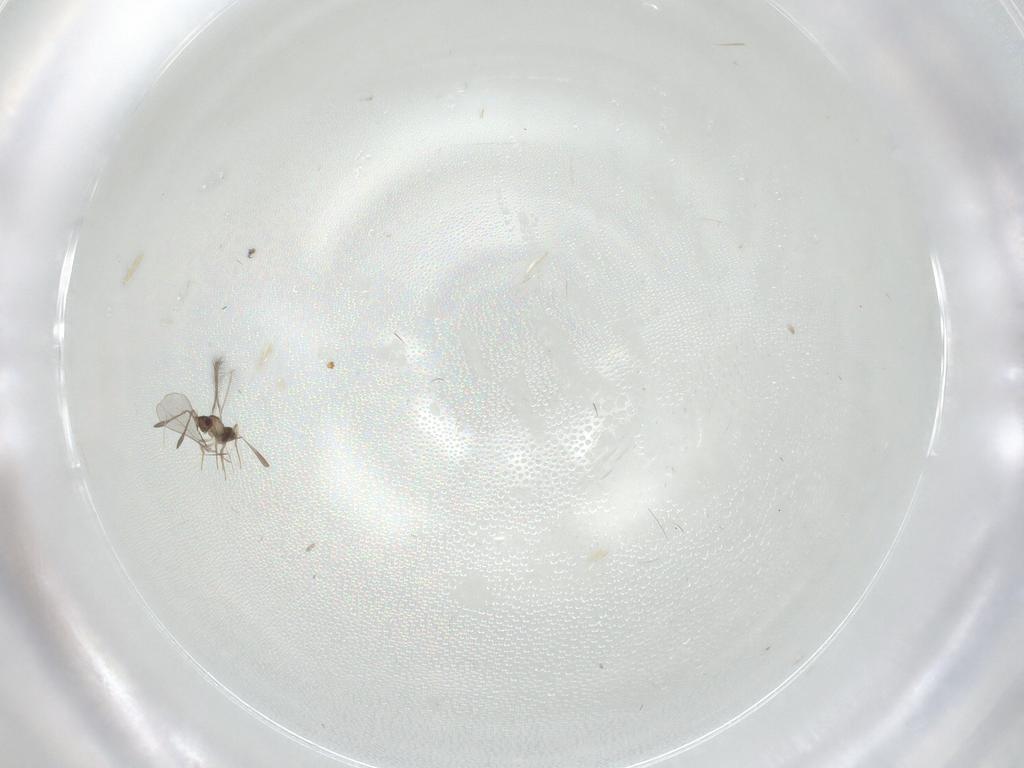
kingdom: Animalia
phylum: Arthropoda
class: Insecta
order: Hymenoptera
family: Mymaridae
